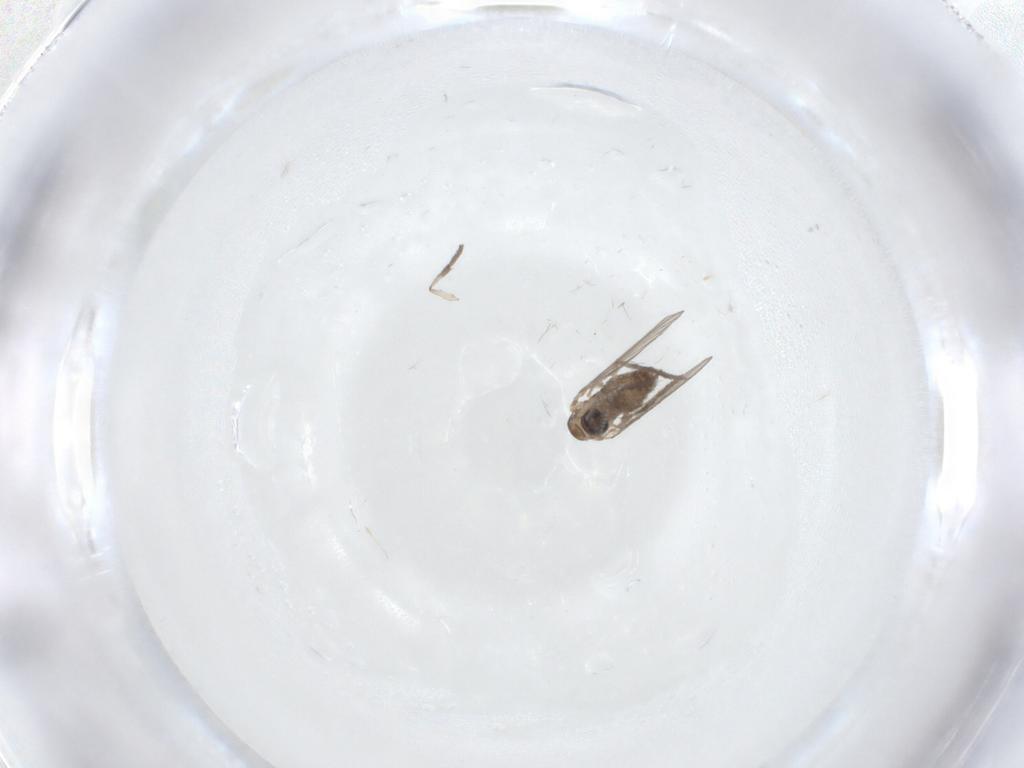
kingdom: Animalia
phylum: Arthropoda
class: Insecta
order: Diptera
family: Psychodidae
